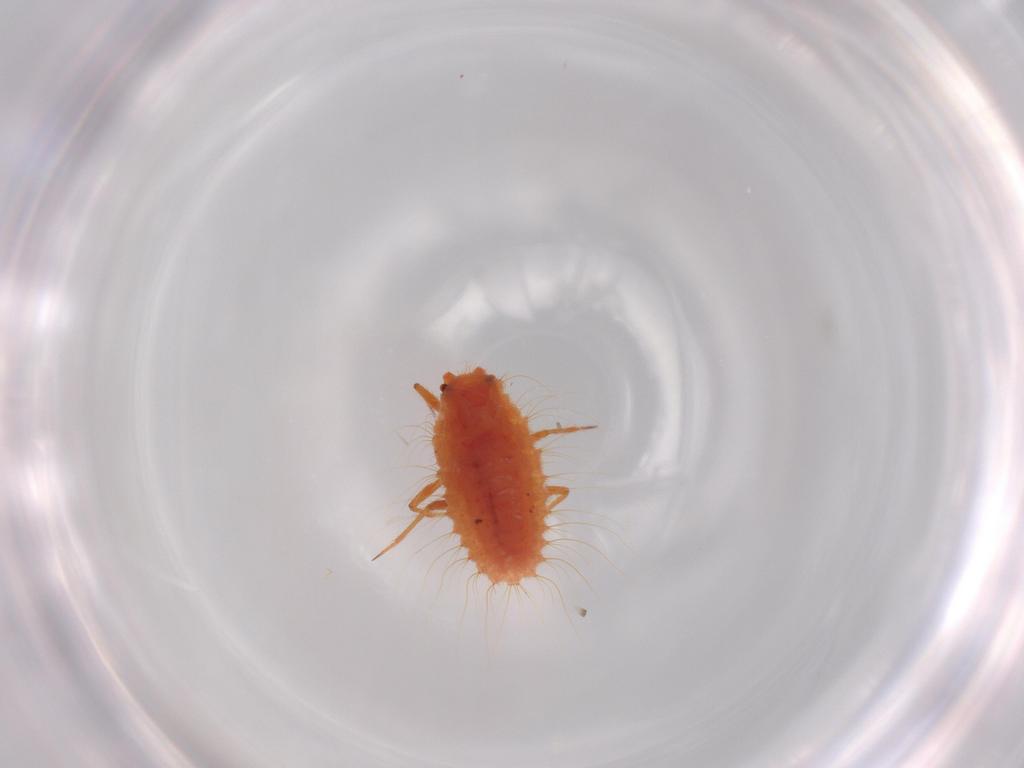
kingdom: Animalia
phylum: Arthropoda
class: Insecta
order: Hemiptera
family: Coccoidea_incertae_sedis
